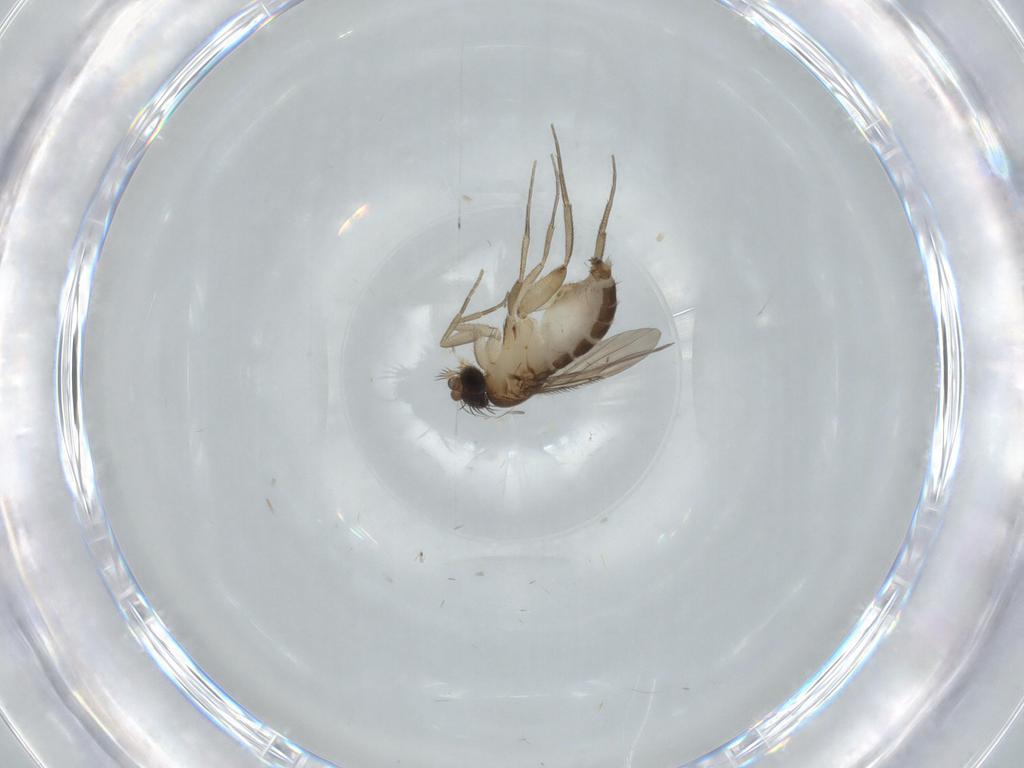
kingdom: Animalia
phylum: Arthropoda
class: Insecta
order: Diptera
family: Phoridae
